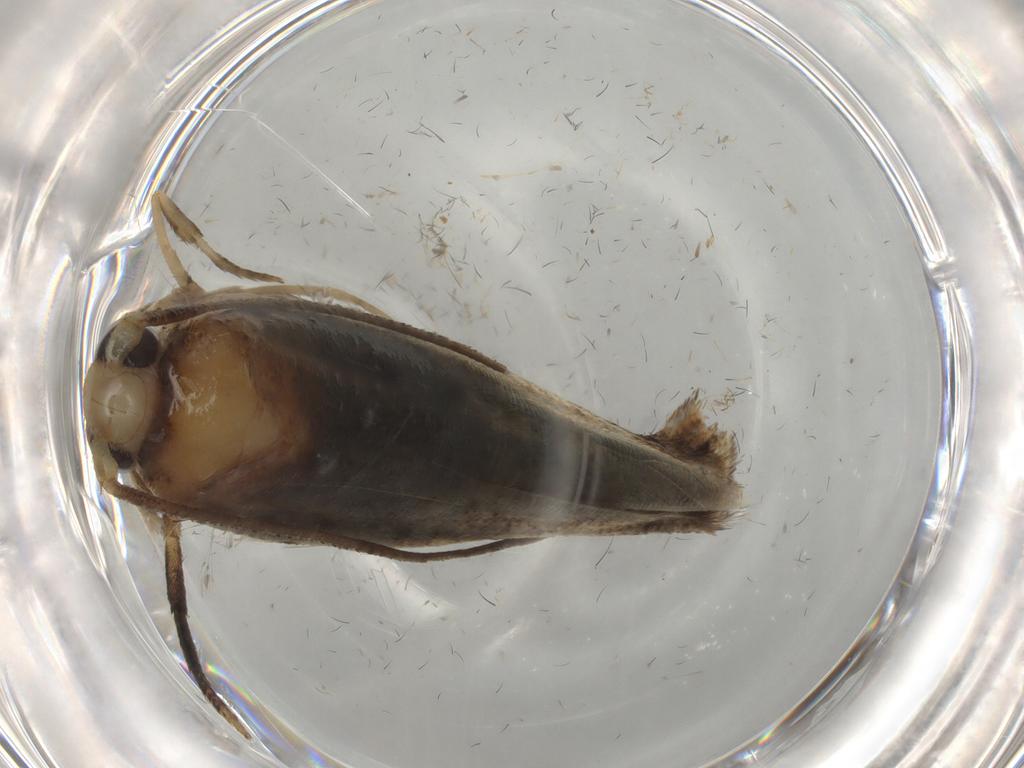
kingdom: Animalia
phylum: Arthropoda
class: Insecta
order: Lepidoptera
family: Yponomeutidae
